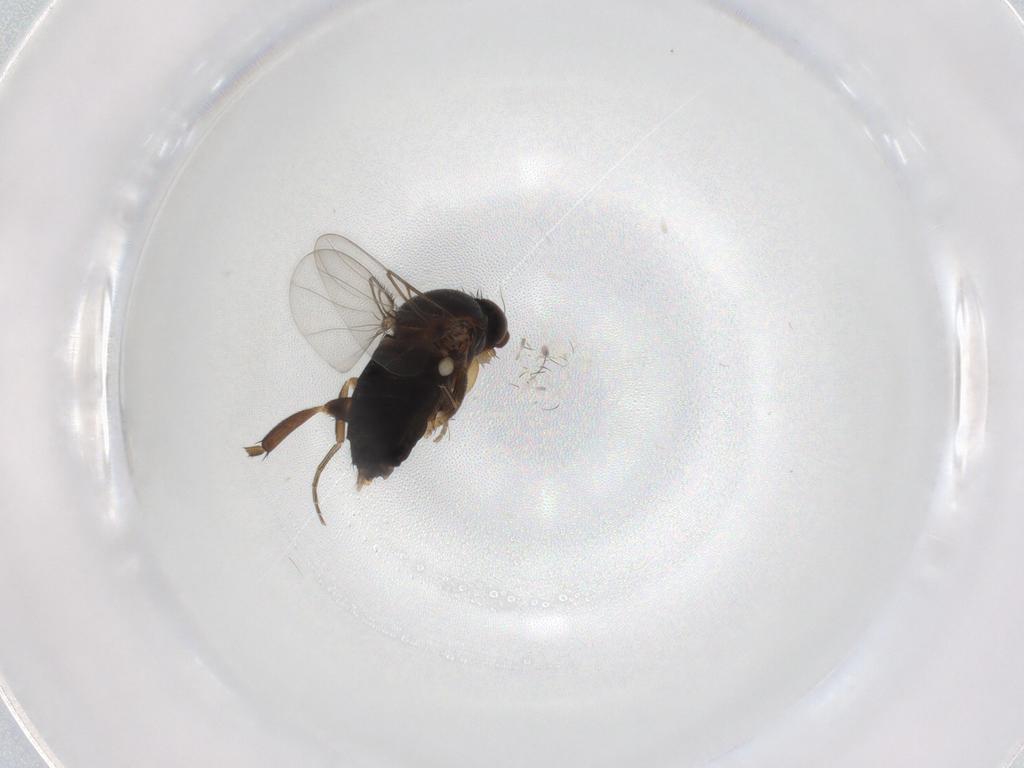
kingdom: Animalia
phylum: Arthropoda
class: Insecta
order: Diptera
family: Phoridae
